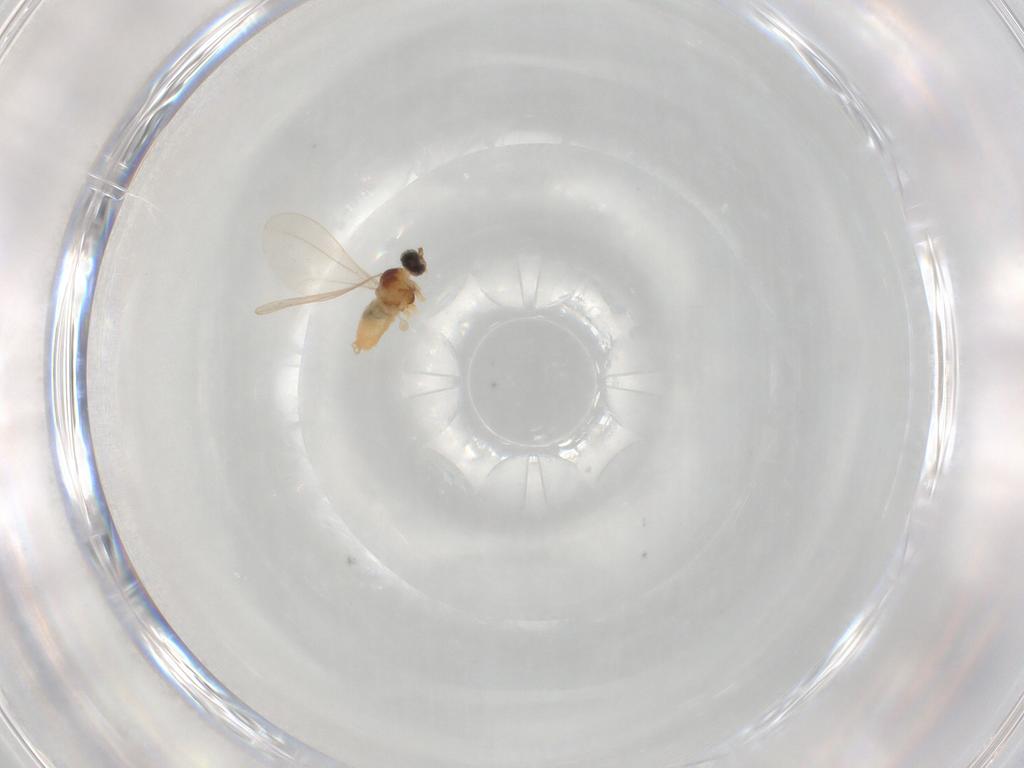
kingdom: Animalia
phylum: Arthropoda
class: Insecta
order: Diptera
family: Cecidomyiidae
